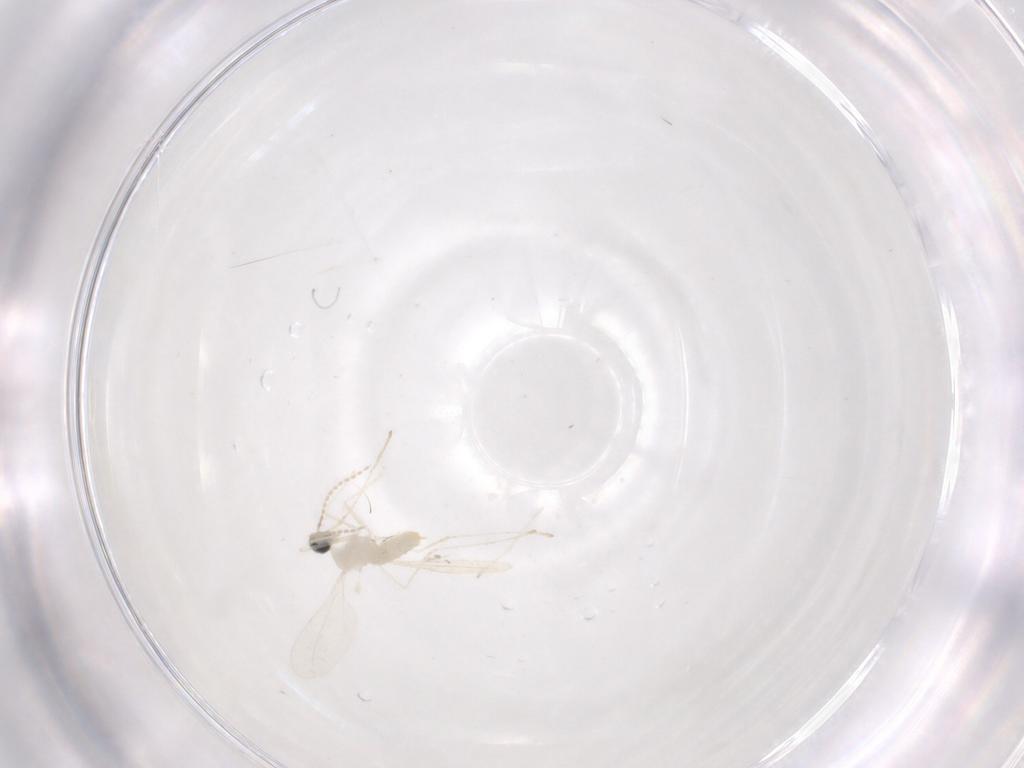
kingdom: Animalia
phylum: Arthropoda
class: Insecta
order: Diptera
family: Cecidomyiidae
